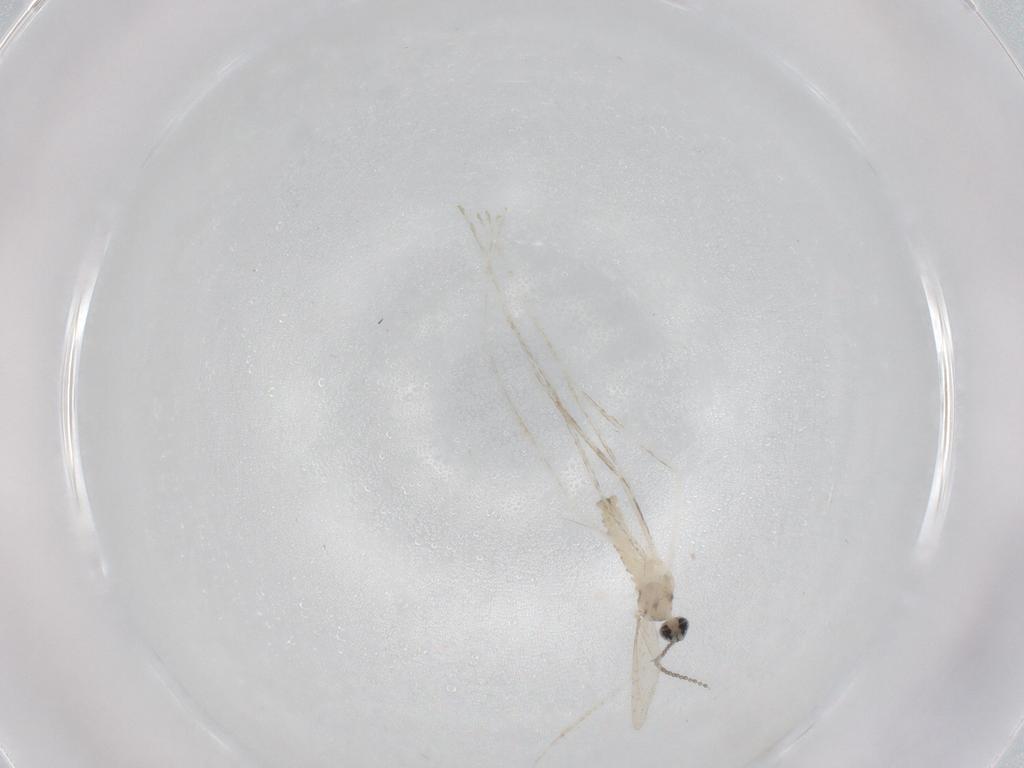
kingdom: Animalia
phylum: Arthropoda
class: Insecta
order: Diptera
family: Cecidomyiidae
